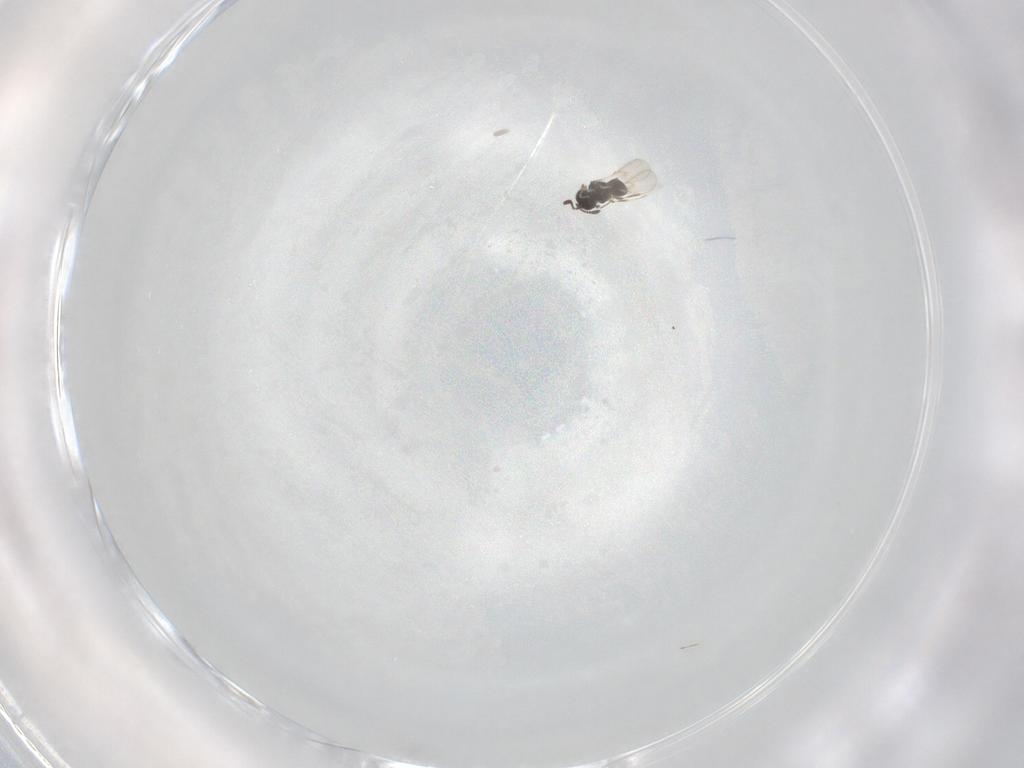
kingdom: Animalia
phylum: Arthropoda
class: Insecta
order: Hymenoptera
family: Scelionidae
